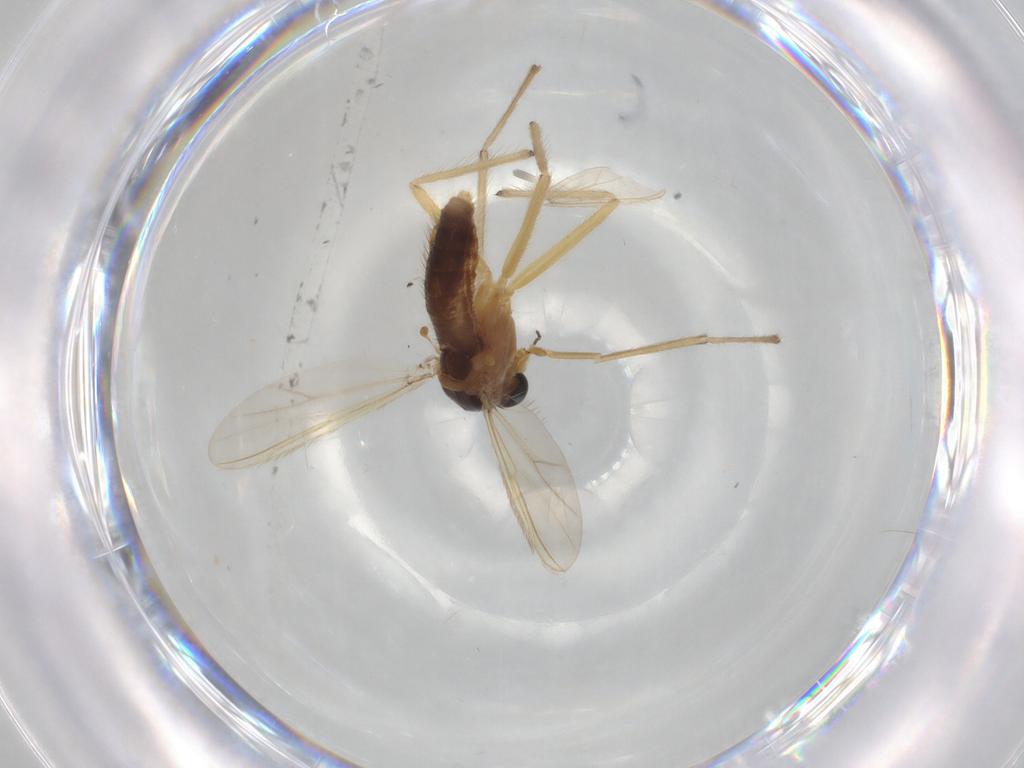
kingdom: Animalia
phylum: Arthropoda
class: Insecta
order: Diptera
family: Chironomidae
